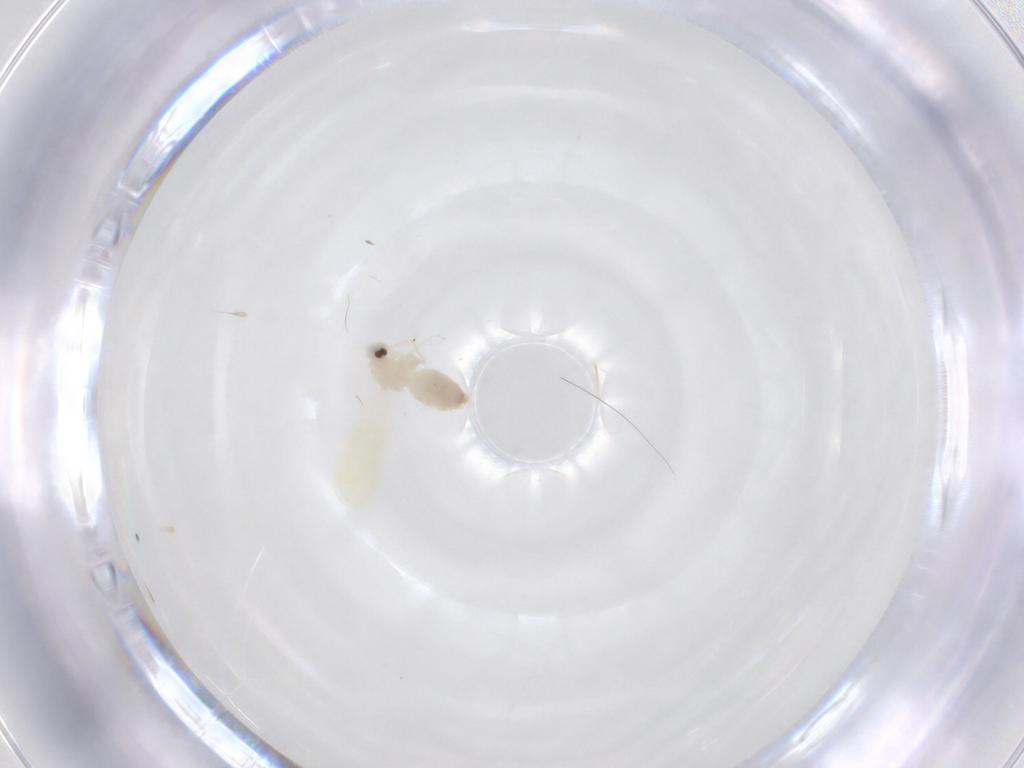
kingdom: Animalia
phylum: Arthropoda
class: Insecta
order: Hemiptera
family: Aleyrodidae
